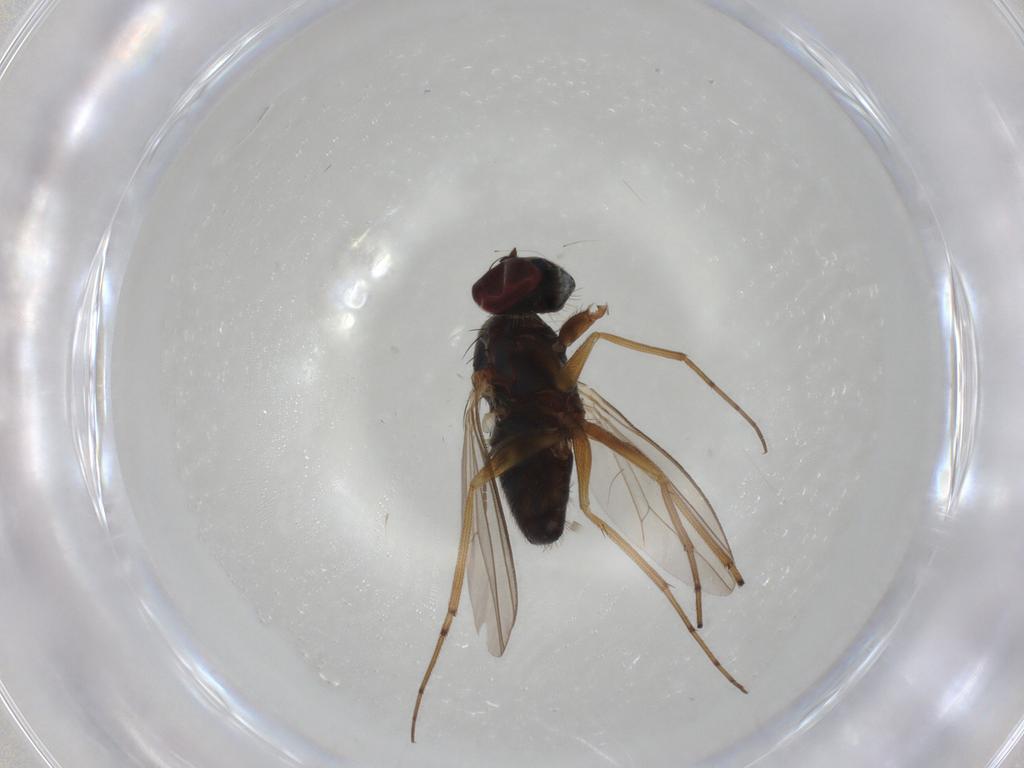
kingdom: Animalia
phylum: Arthropoda
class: Insecta
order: Diptera
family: Dolichopodidae
